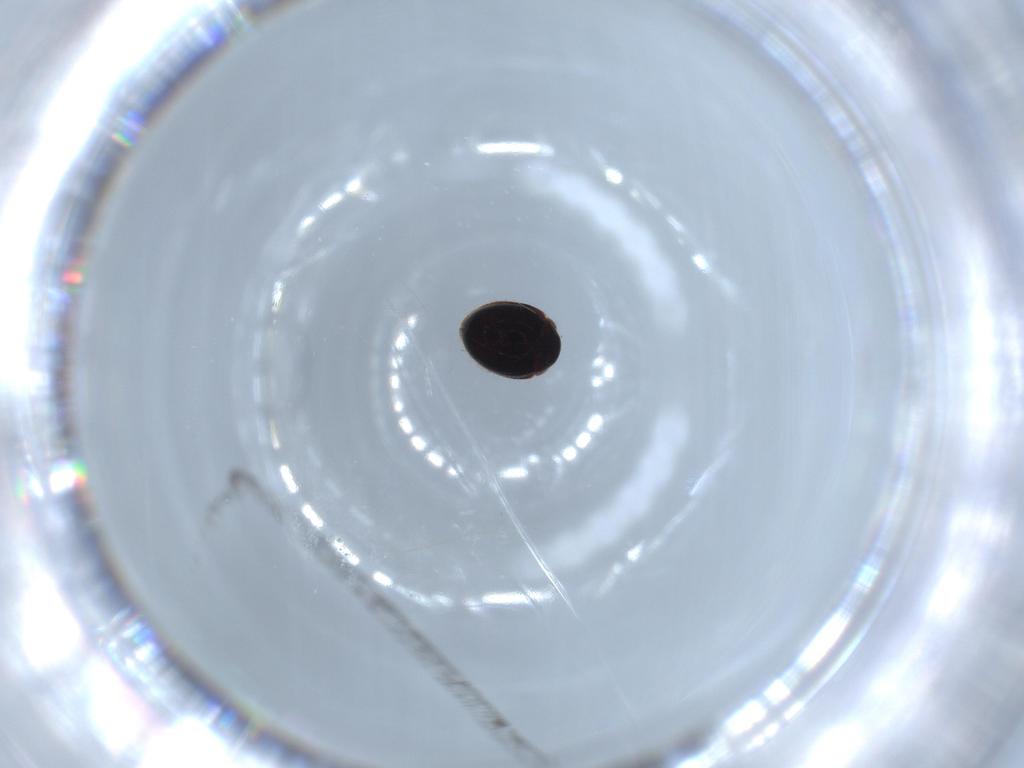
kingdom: Animalia
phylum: Arthropoda
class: Insecta
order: Coleoptera
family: Coccinellidae
